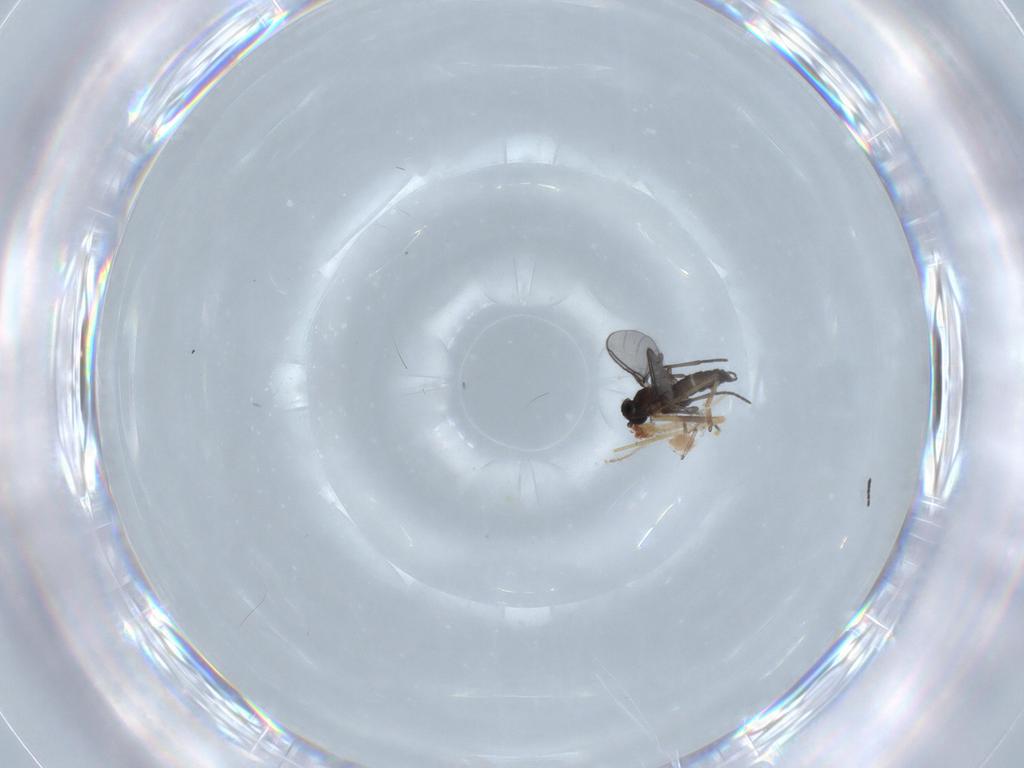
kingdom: Animalia
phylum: Arthropoda
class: Insecta
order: Diptera
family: Sciaridae
